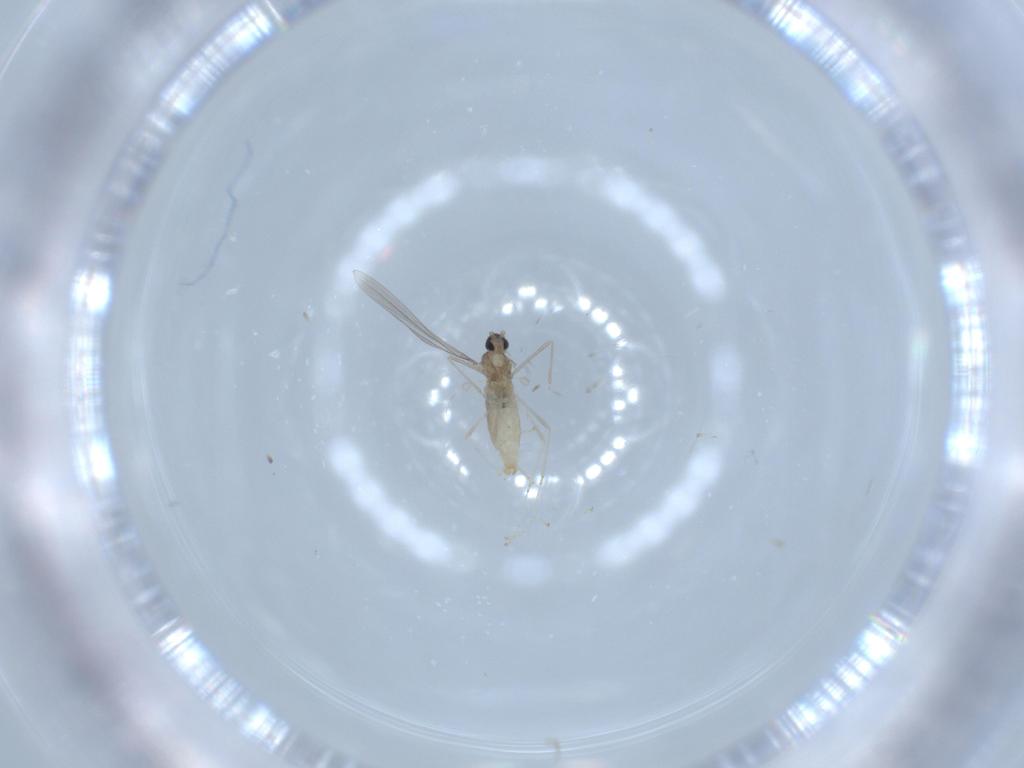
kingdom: Animalia
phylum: Arthropoda
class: Insecta
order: Diptera
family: Cecidomyiidae
